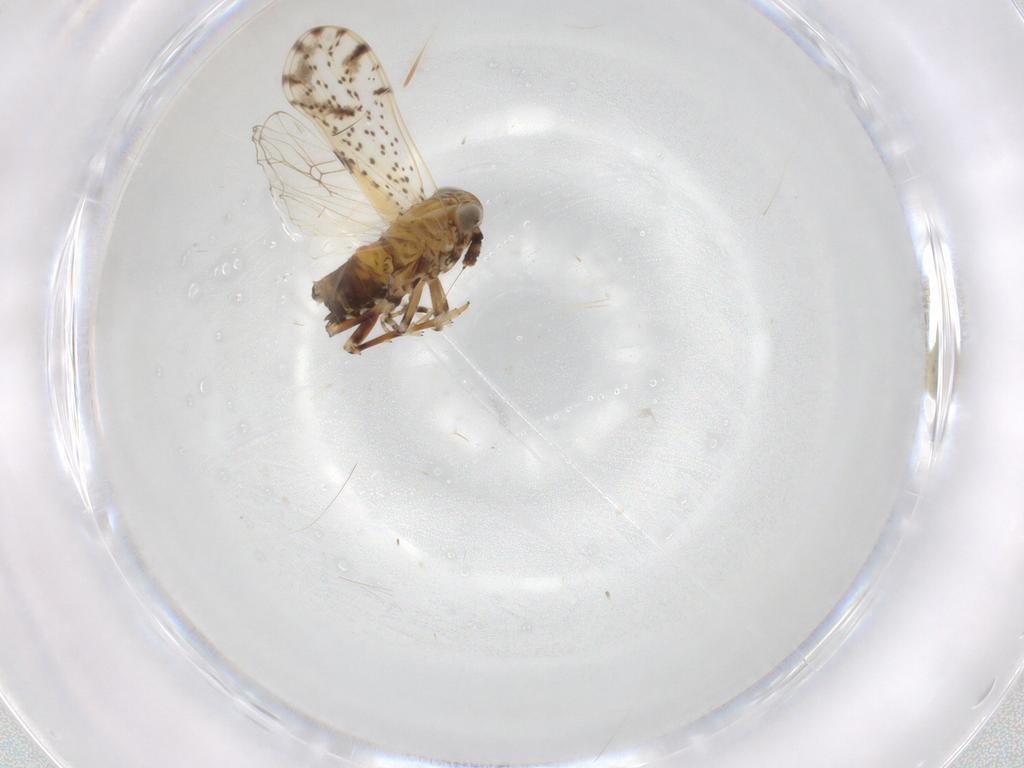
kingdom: Animalia
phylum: Arthropoda
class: Insecta
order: Hemiptera
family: Delphacidae
